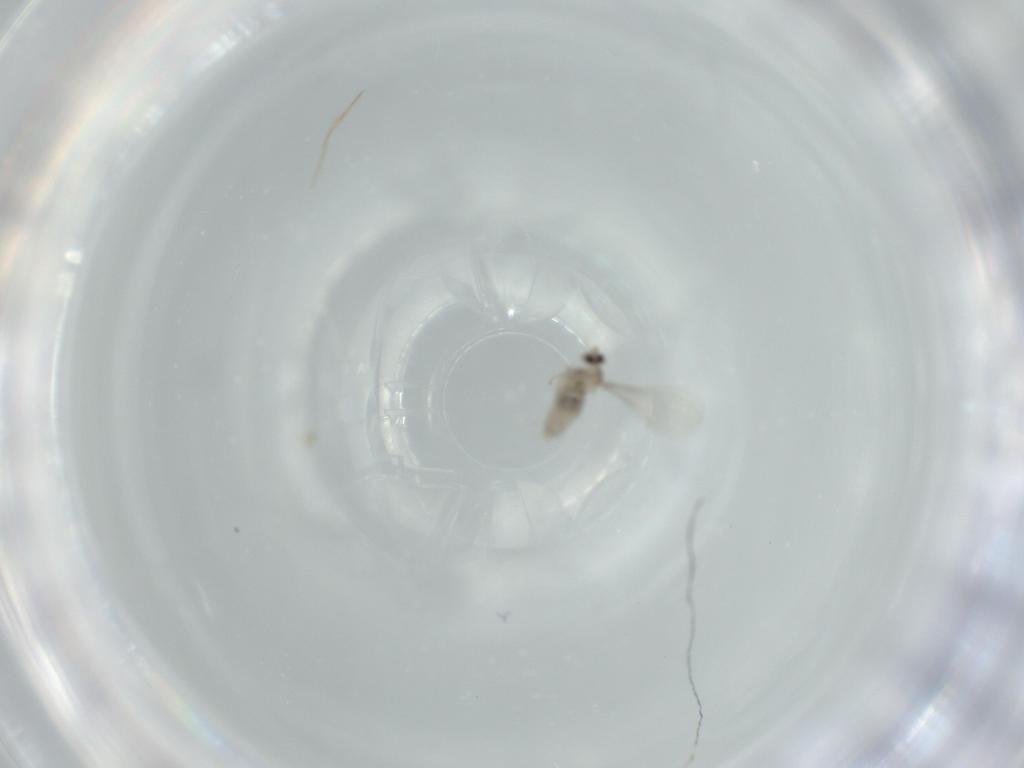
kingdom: Animalia
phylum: Arthropoda
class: Insecta
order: Diptera
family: Cecidomyiidae
